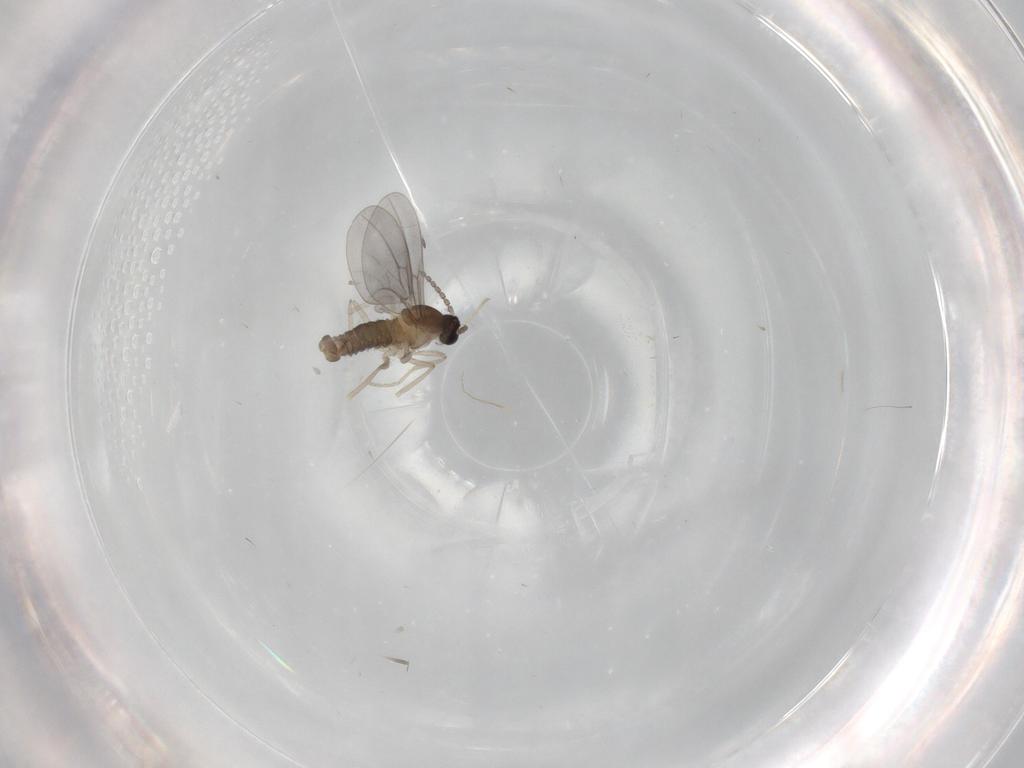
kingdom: Animalia
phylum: Arthropoda
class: Insecta
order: Diptera
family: Cecidomyiidae
